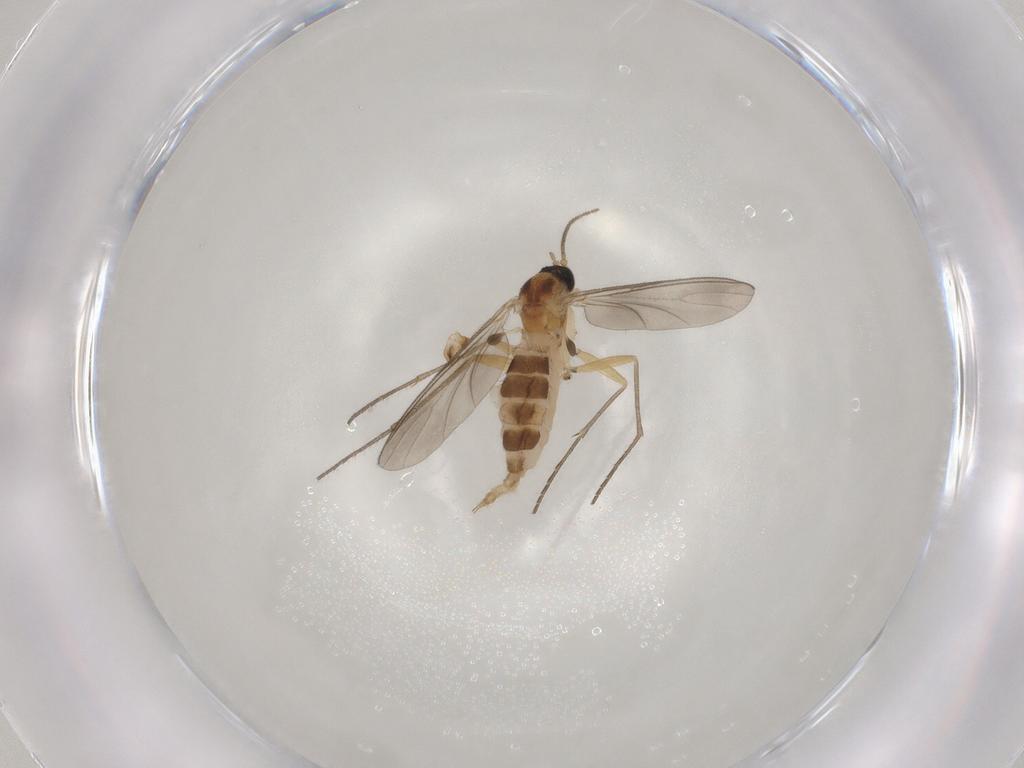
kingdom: Animalia
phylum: Arthropoda
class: Insecta
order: Diptera
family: Sciaridae
